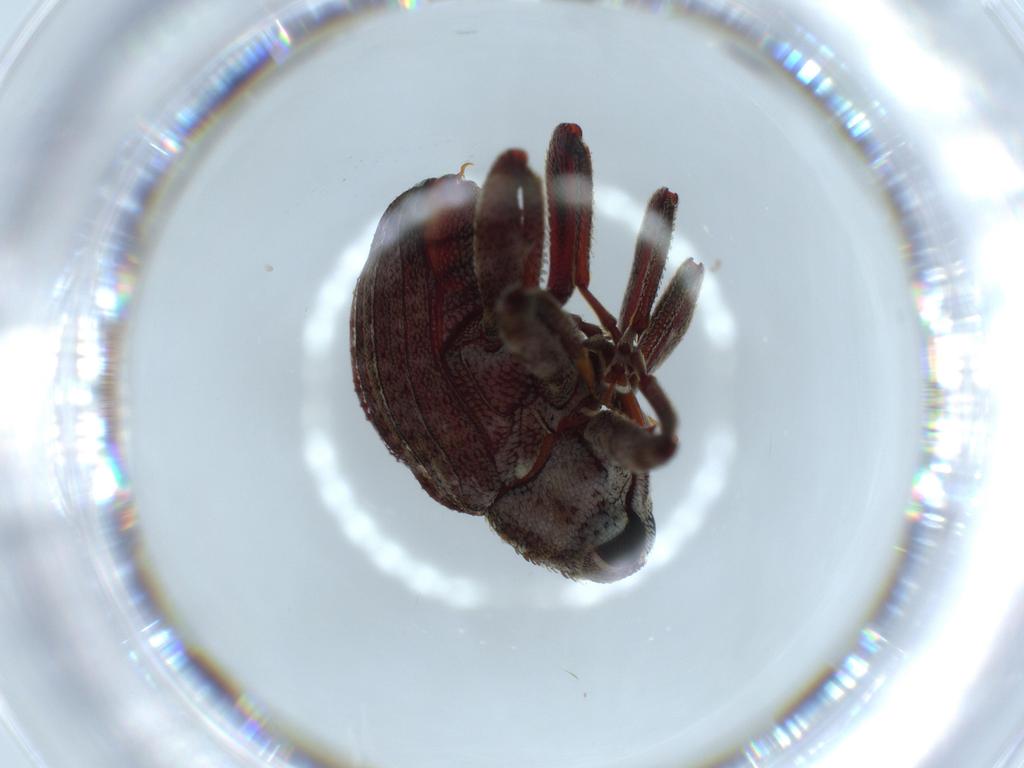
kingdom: Animalia
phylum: Arthropoda
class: Insecta
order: Coleoptera
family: Curculionidae
